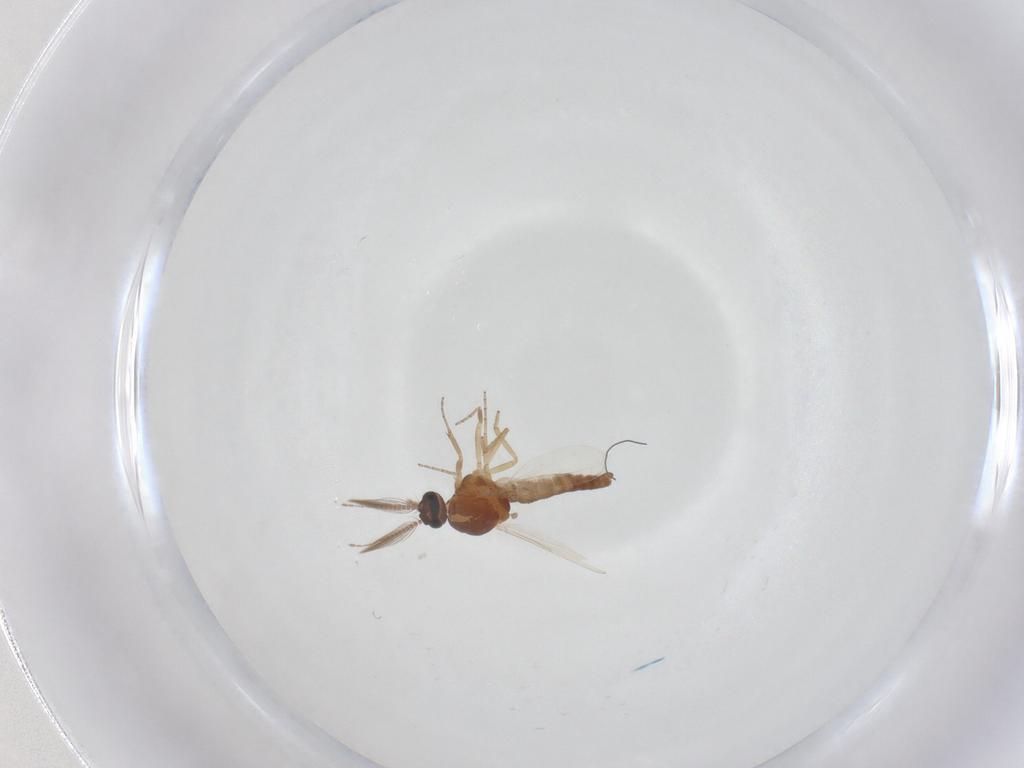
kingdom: Animalia
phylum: Arthropoda
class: Insecta
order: Diptera
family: Ceratopogonidae
